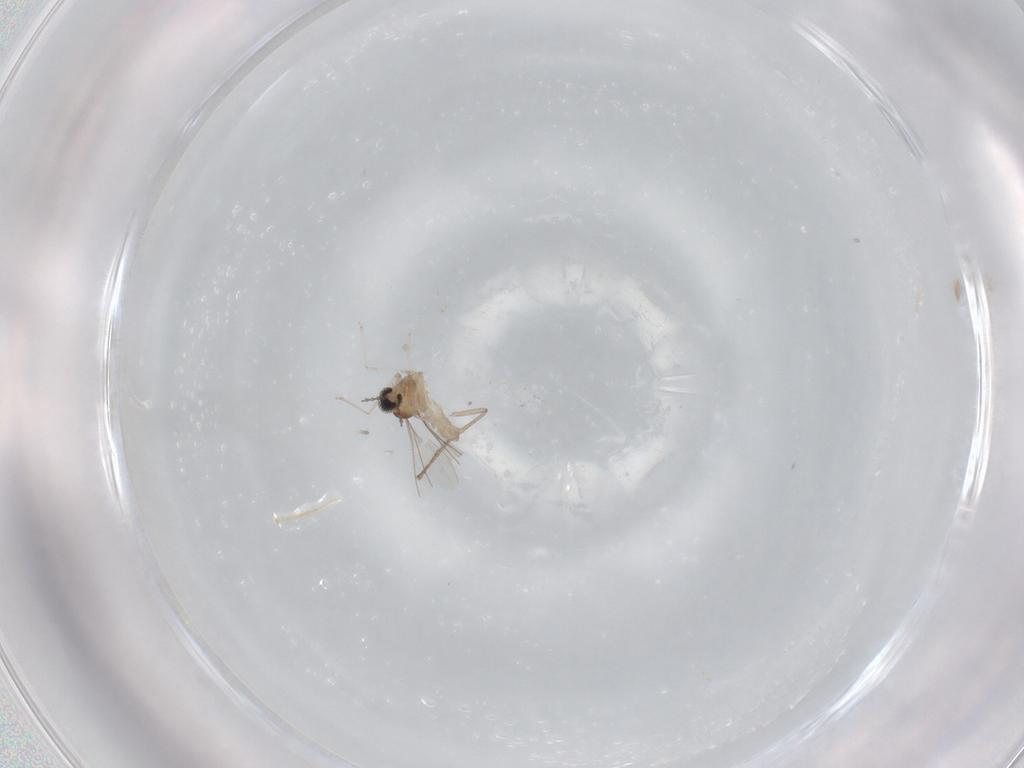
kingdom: Animalia
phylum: Arthropoda
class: Insecta
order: Diptera
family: Cecidomyiidae
